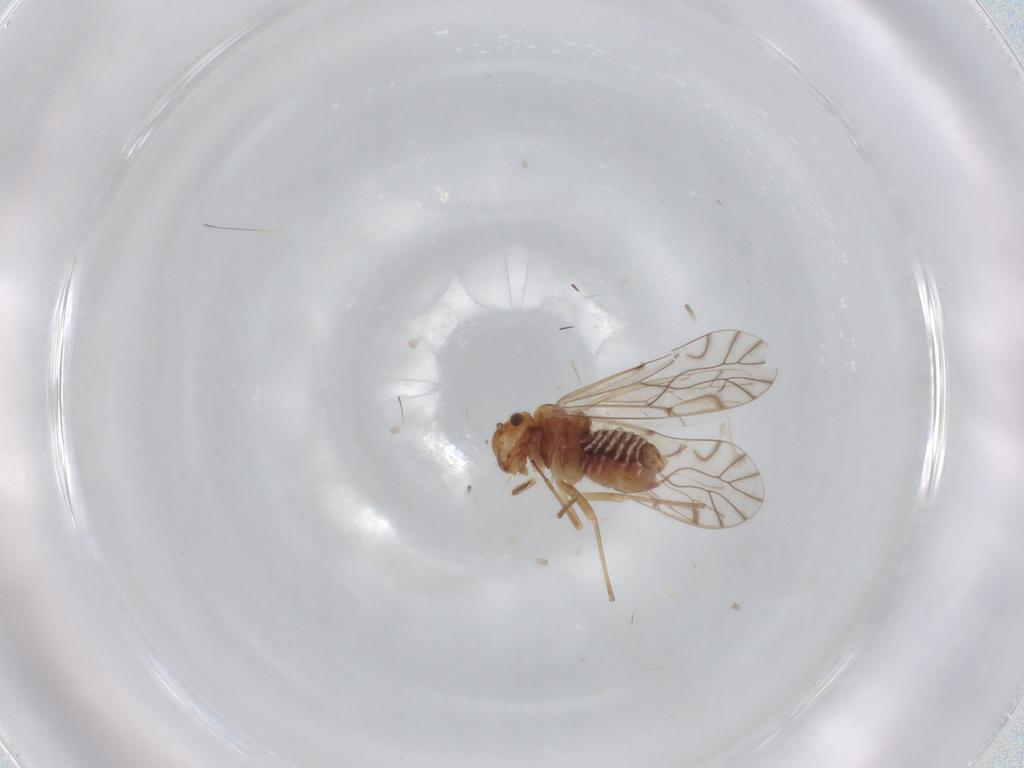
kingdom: Animalia
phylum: Arthropoda
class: Insecta
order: Psocodea
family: Lachesillidae
